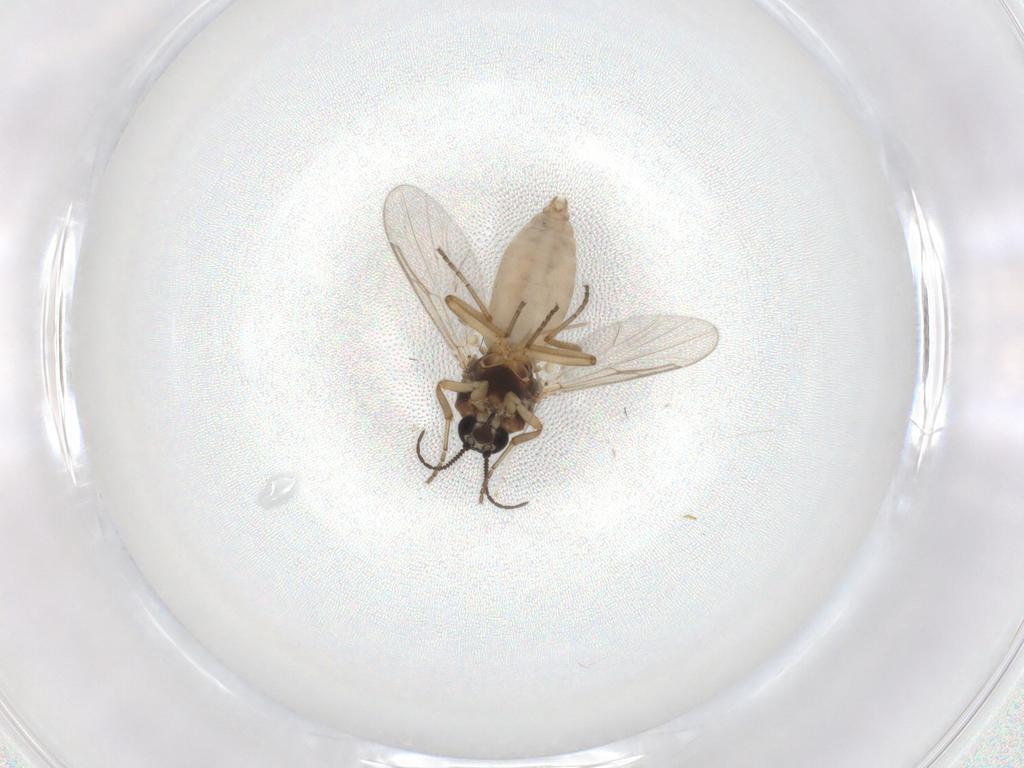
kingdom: Animalia
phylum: Arthropoda
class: Insecta
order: Diptera
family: Ceratopogonidae
